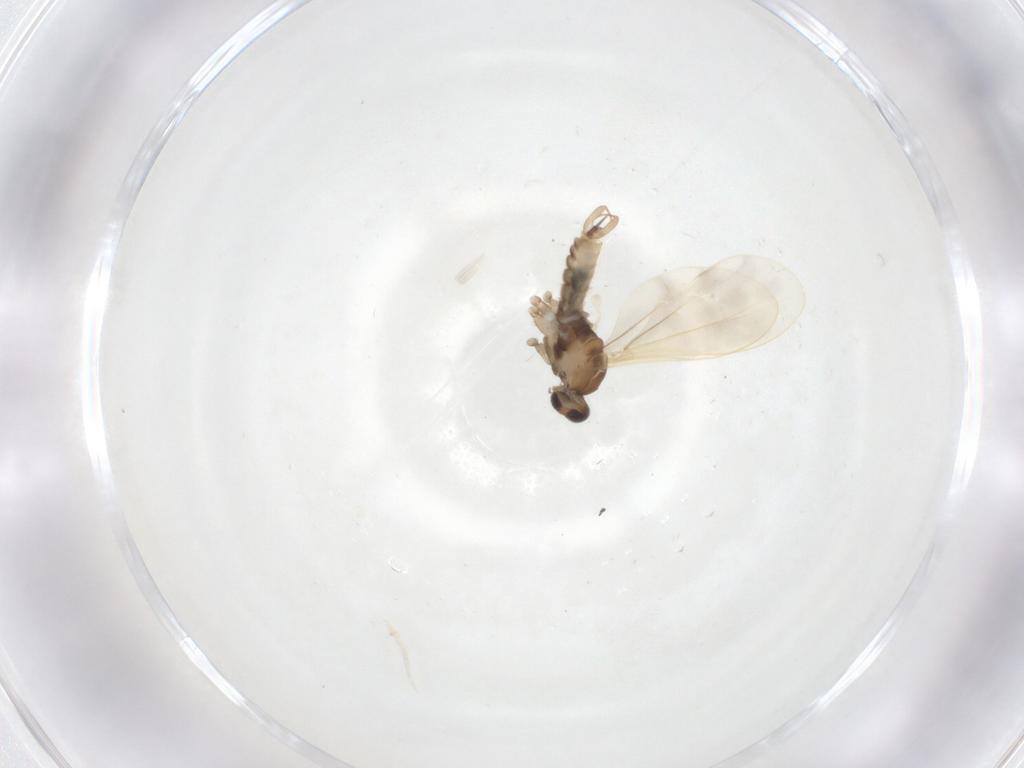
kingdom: Animalia
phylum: Arthropoda
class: Insecta
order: Diptera
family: Cecidomyiidae
